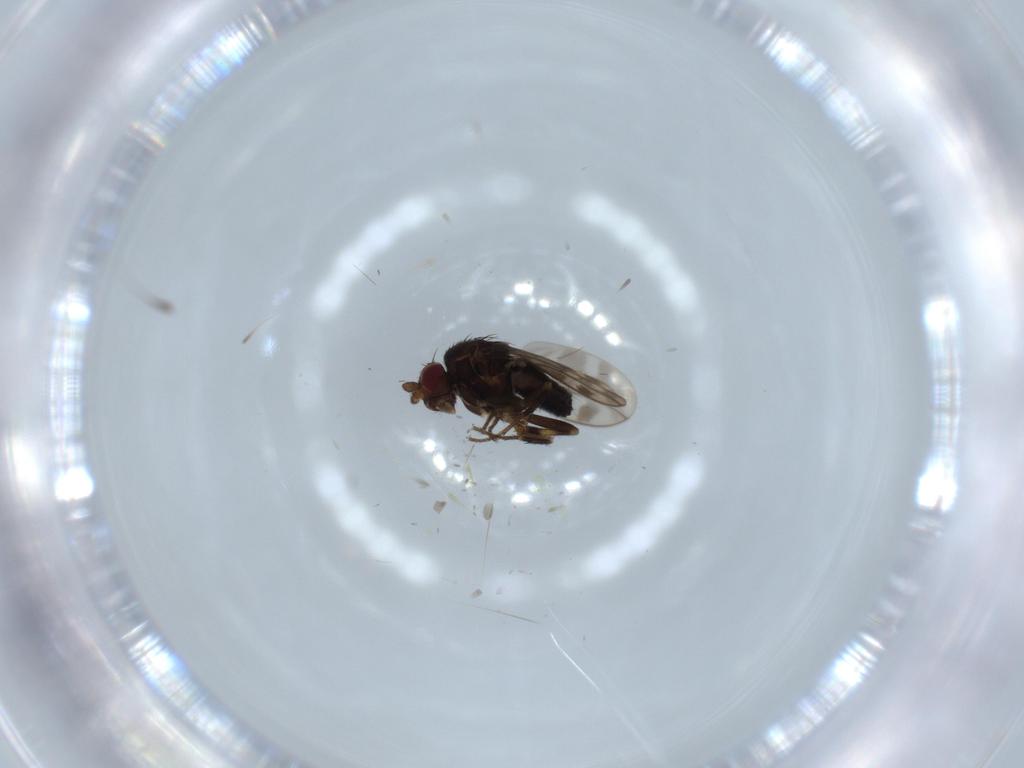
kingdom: Animalia
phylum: Arthropoda
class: Insecta
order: Diptera
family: Sphaeroceridae
